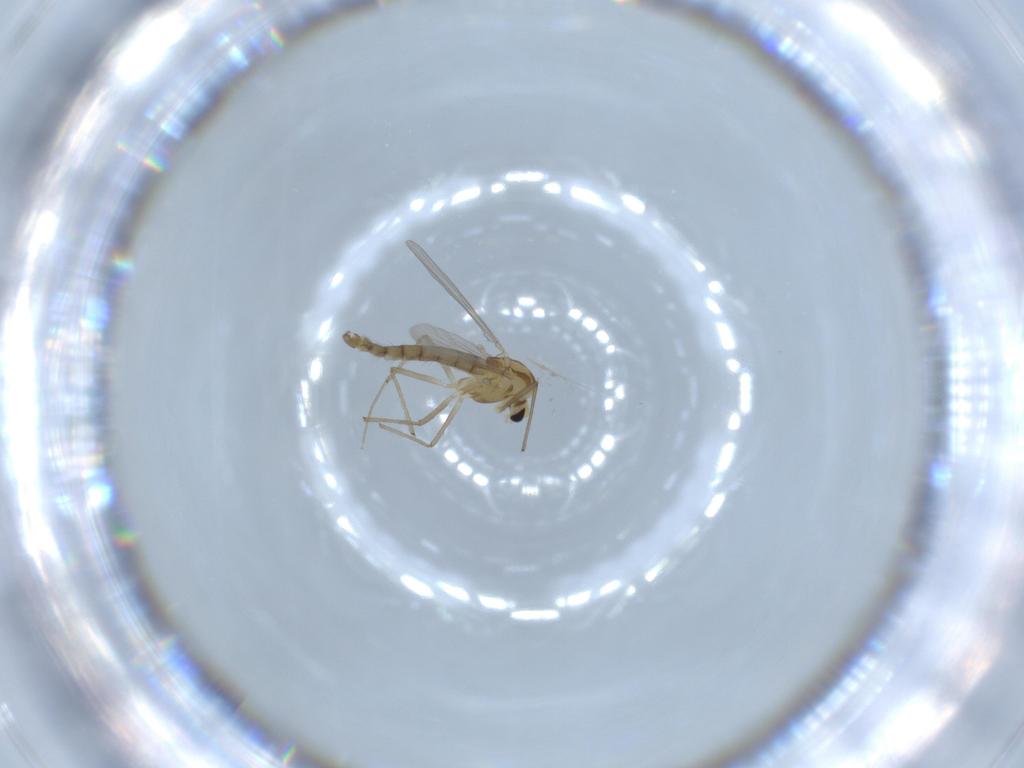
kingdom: Animalia
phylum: Arthropoda
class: Insecta
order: Diptera
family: Chironomidae
